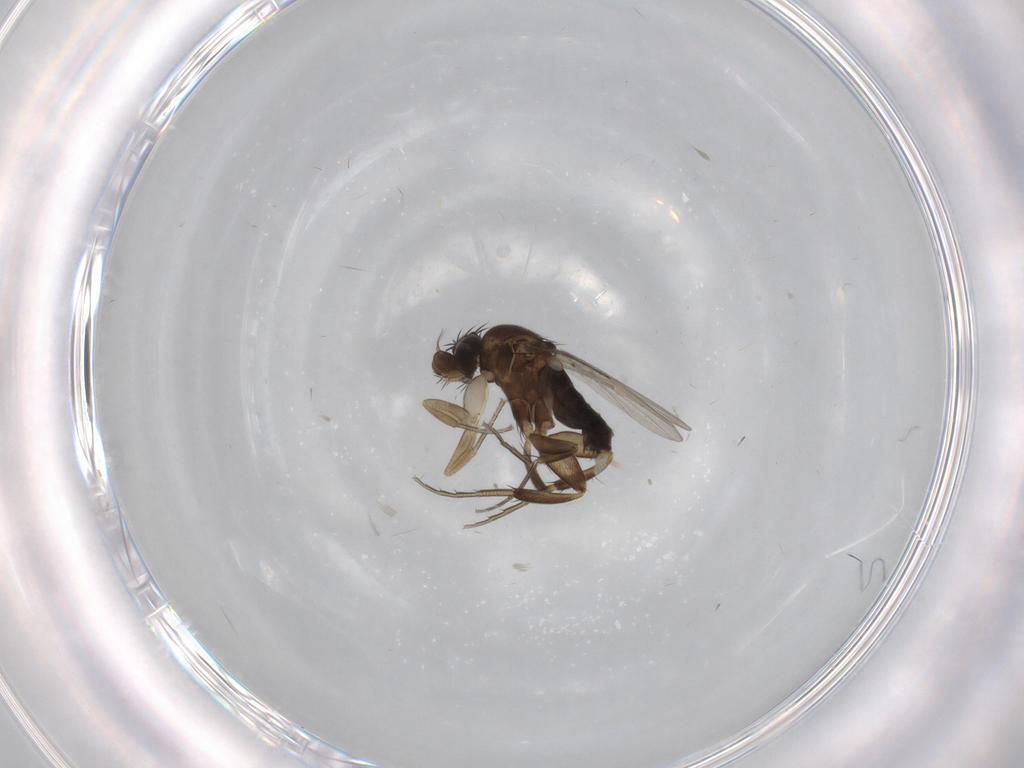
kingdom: Animalia
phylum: Arthropoda
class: Insecta
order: Diptera
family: Phoridae
